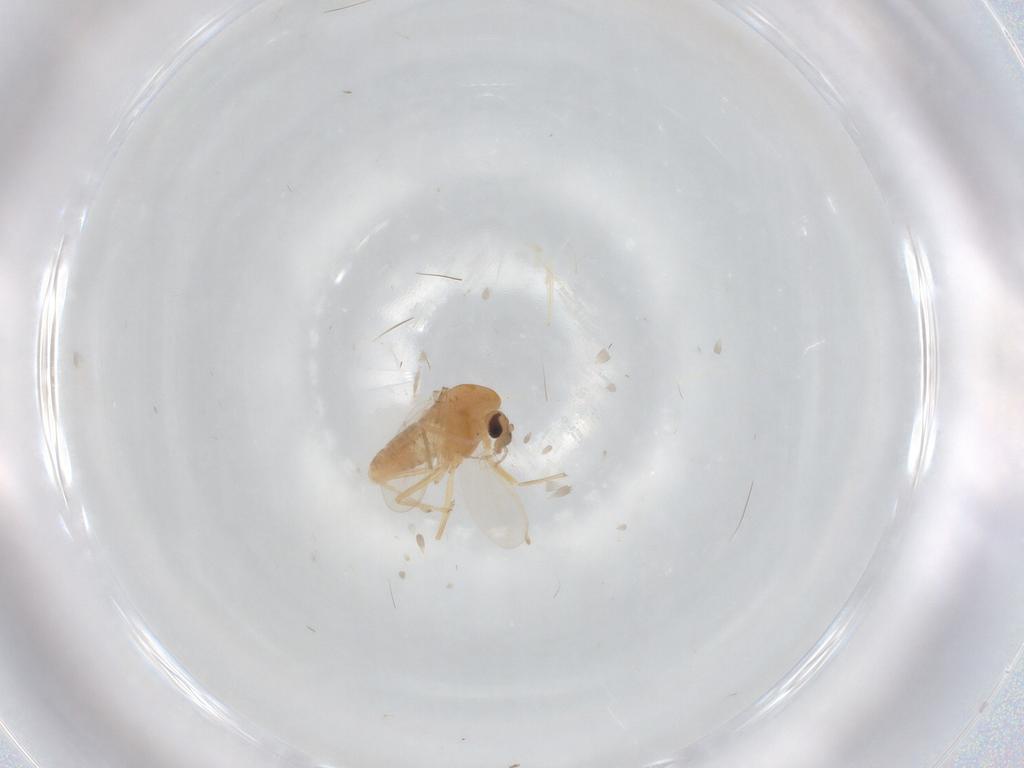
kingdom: Animalia
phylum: Arthropoda
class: Insecta
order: Diptera
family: Chironomidae
